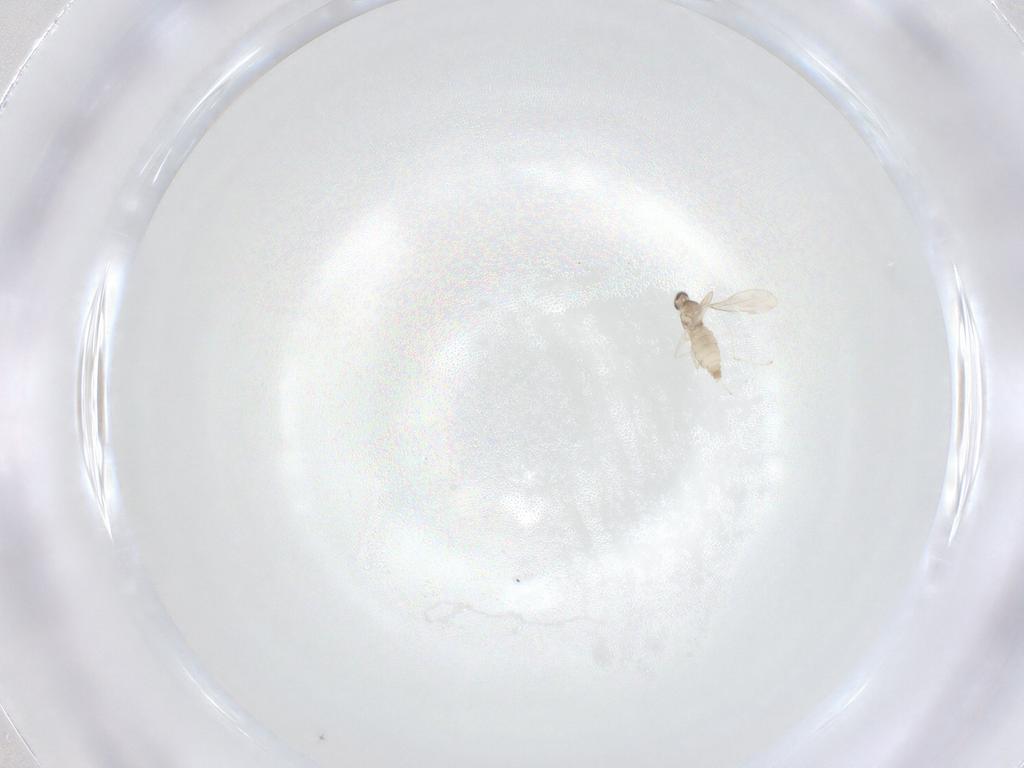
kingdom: Animalia
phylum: Arthropoda
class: Insecta
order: Diptera
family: Cecidomyiidae
